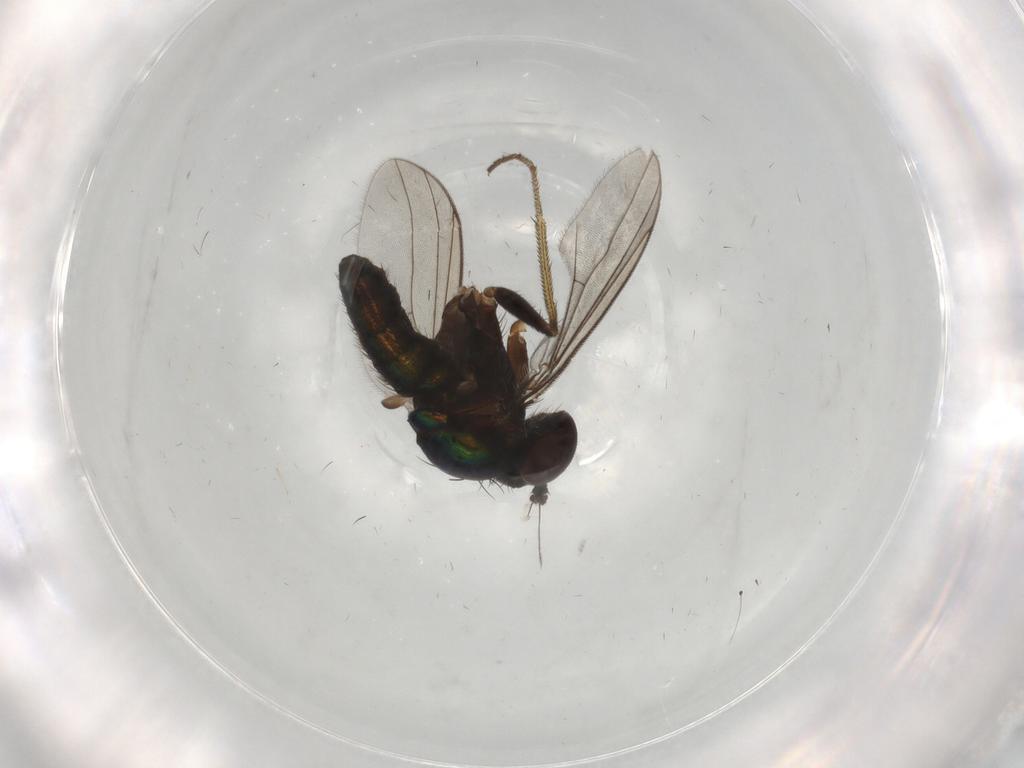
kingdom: Animalia
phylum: Arthropoda
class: Insecta
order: Diptera
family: Dolichopodidae
